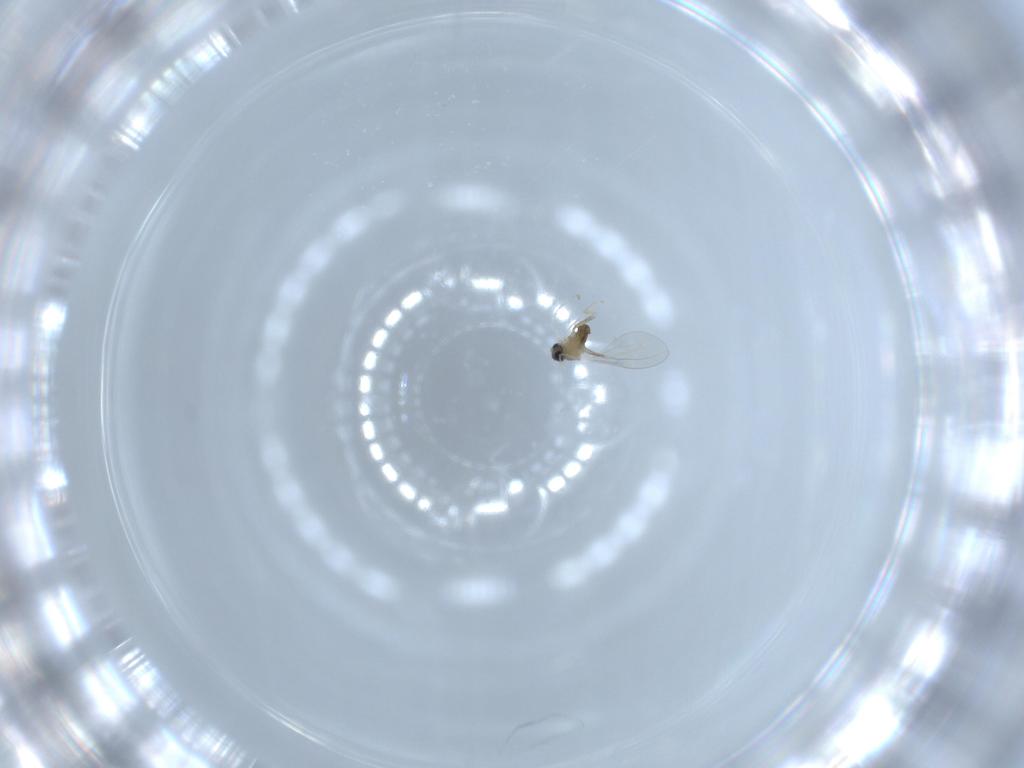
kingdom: Animalia
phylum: Arthropoda
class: Insecta
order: Diptera
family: Cecidomyiidae
